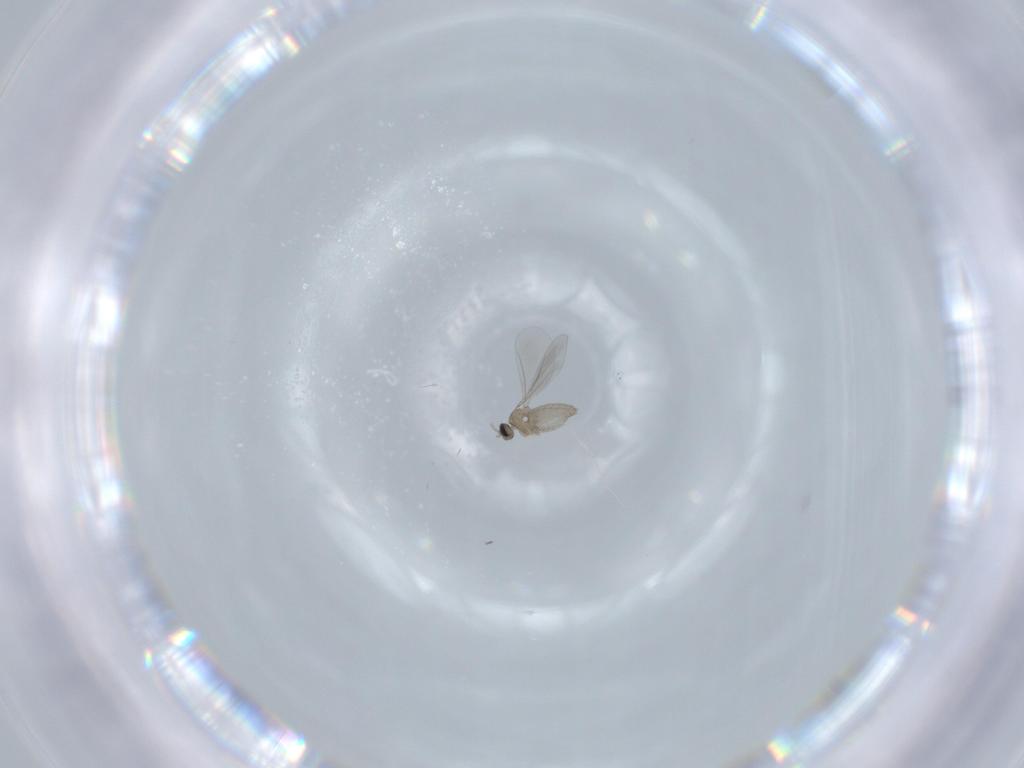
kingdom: Animalia
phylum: Arthropoda
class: Insecta
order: Diptera
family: Cecidomyiidae
